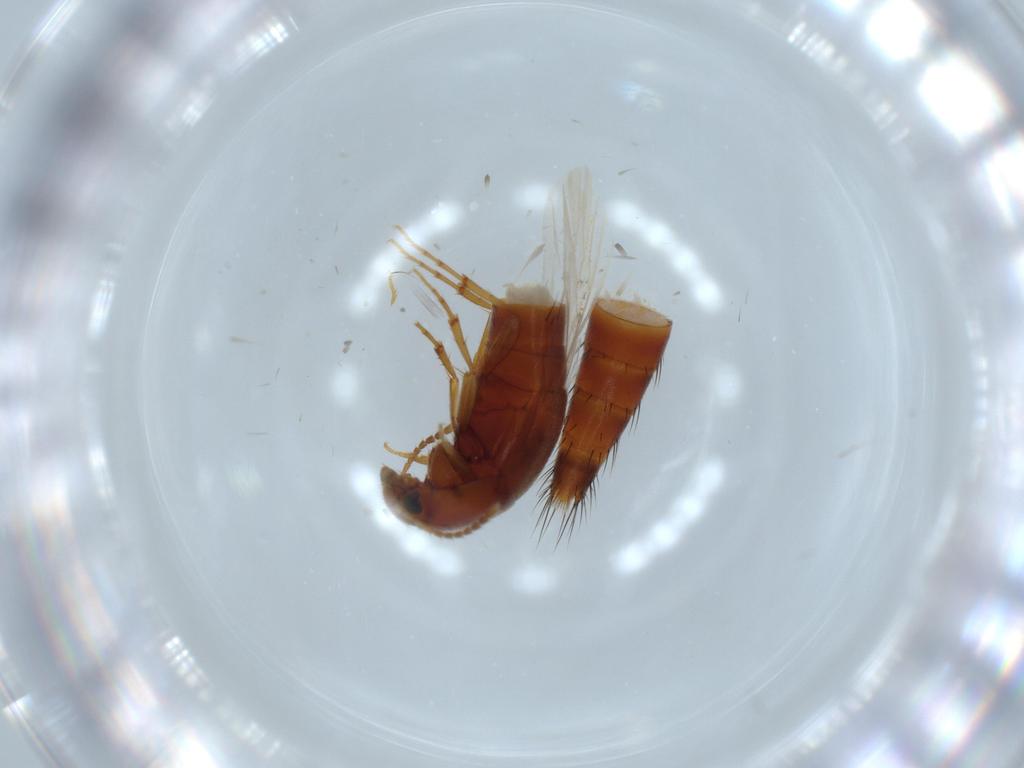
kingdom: Animalia
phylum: Arthropoda
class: Insecta
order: Coleoptera
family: Staphylinidae
